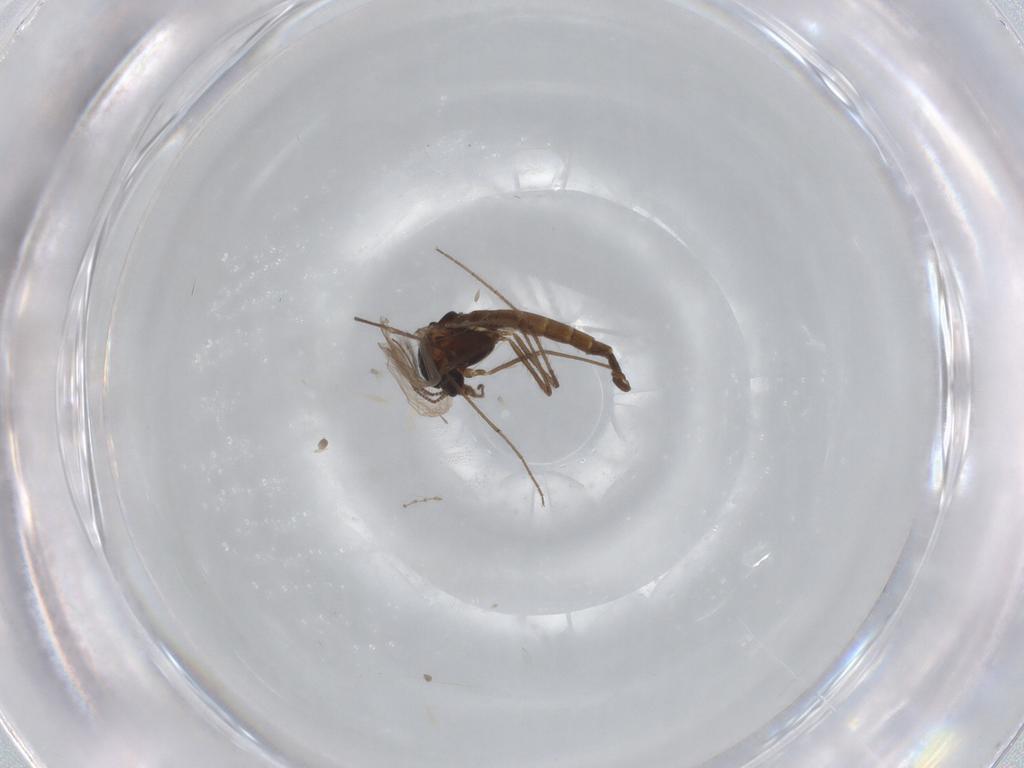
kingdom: Animalia
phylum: Arthropoda
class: Insecta
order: Diptera
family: Chironomidae
